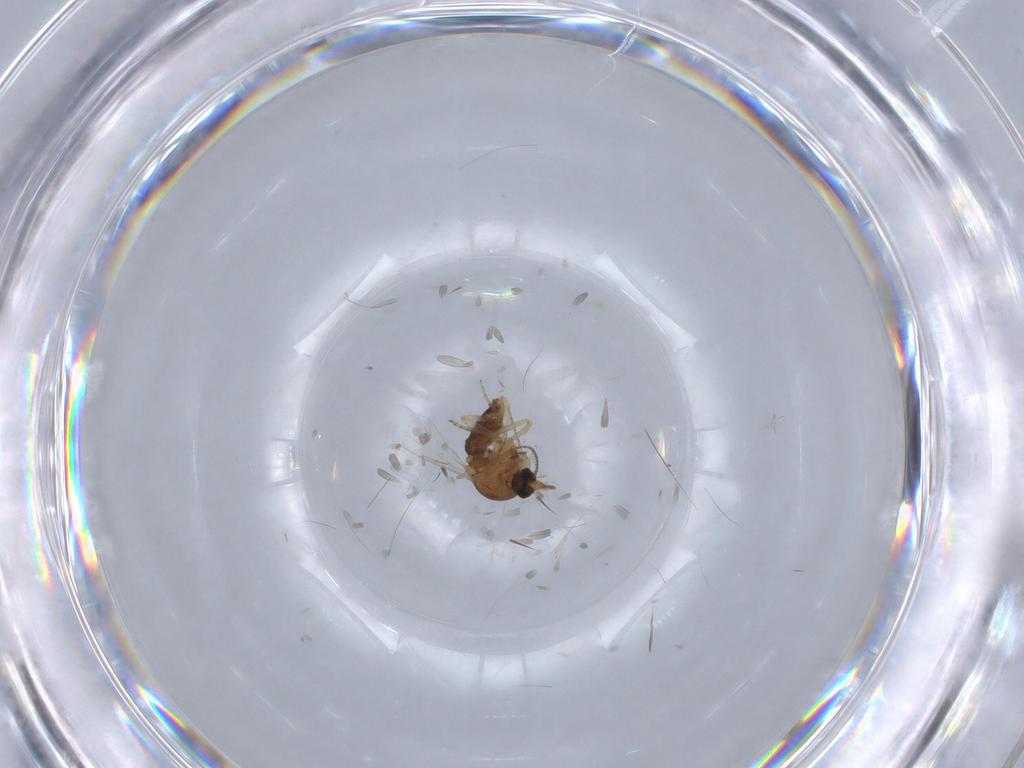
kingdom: Animalia
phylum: Arthropoda
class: Insecta
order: Diptera
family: Ceratopogonidae
